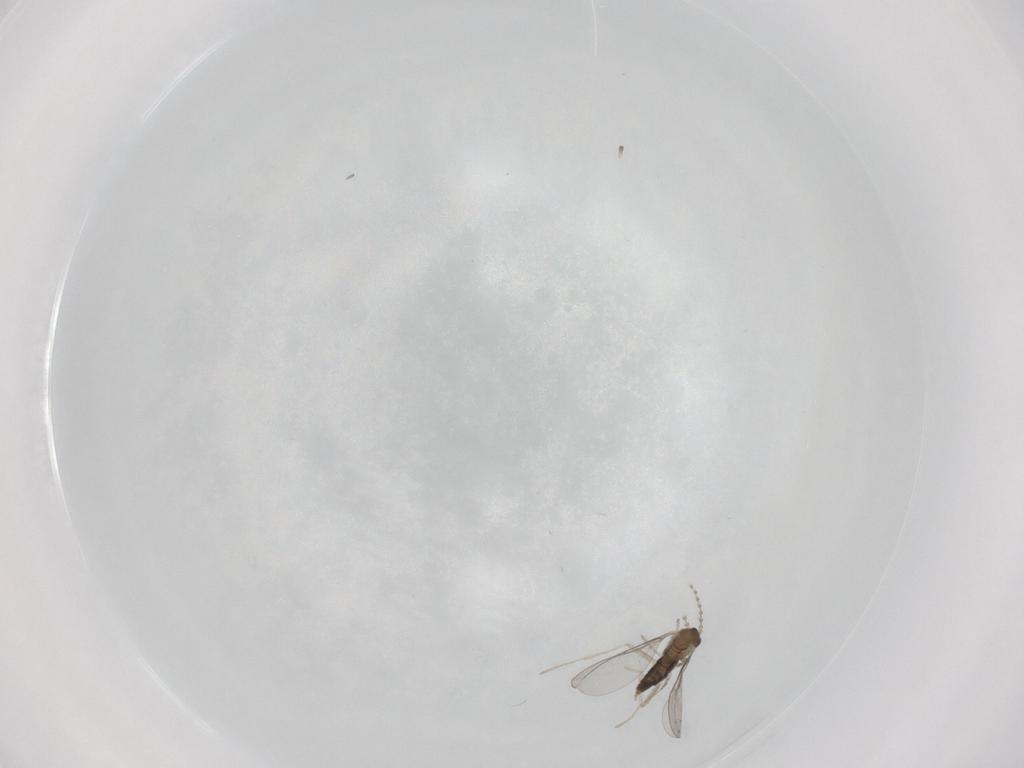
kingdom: Animalia
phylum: Arthropoda
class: Insecta
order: Diptera
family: Cecidomyiidae
